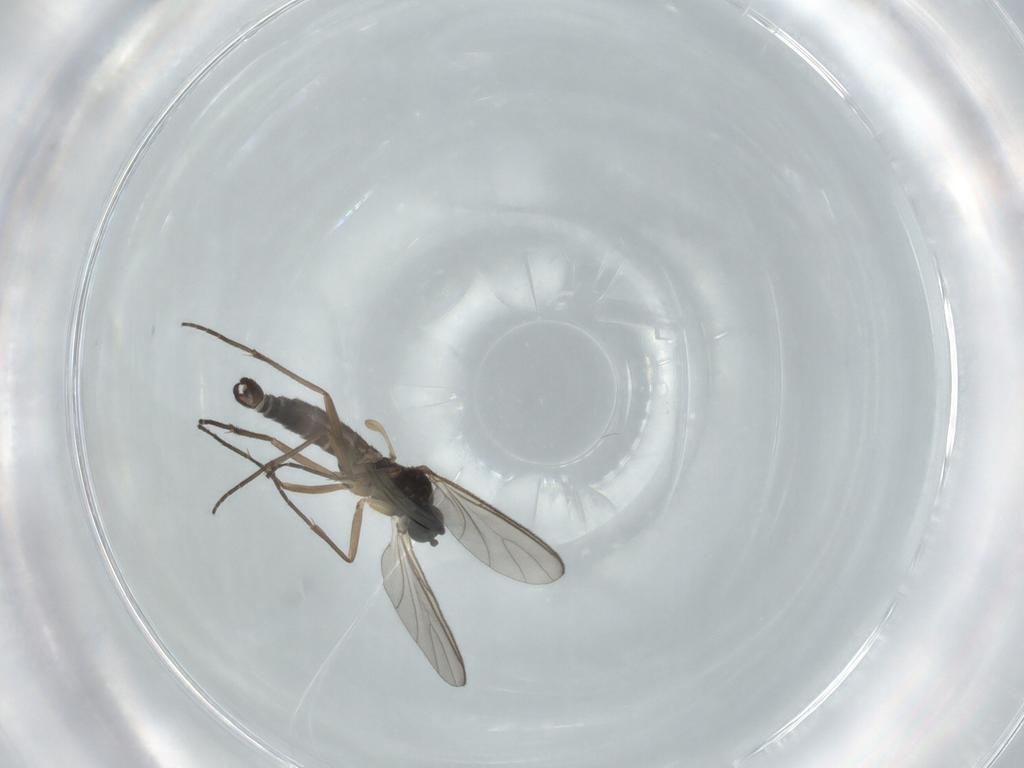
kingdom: Animalia
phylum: Arthropoda
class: Insecta
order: Diptera
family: Sciaridae
